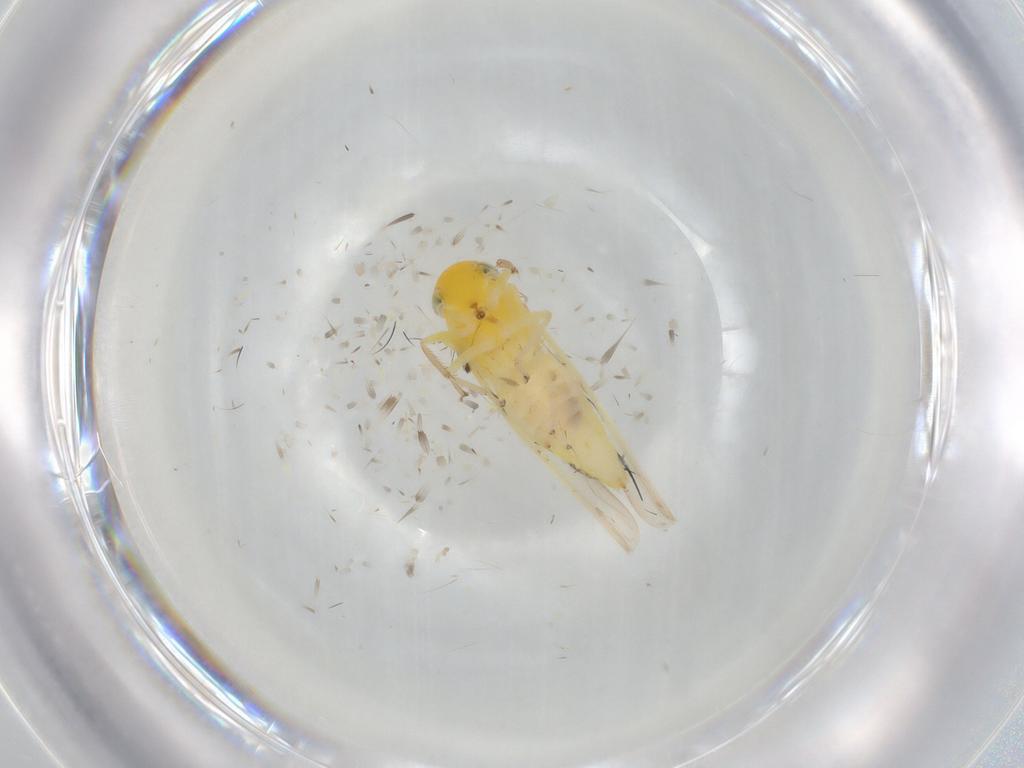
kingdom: Animalia
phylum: Arthropoda
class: Insecta
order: Hemiptera
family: Cicadellidae
